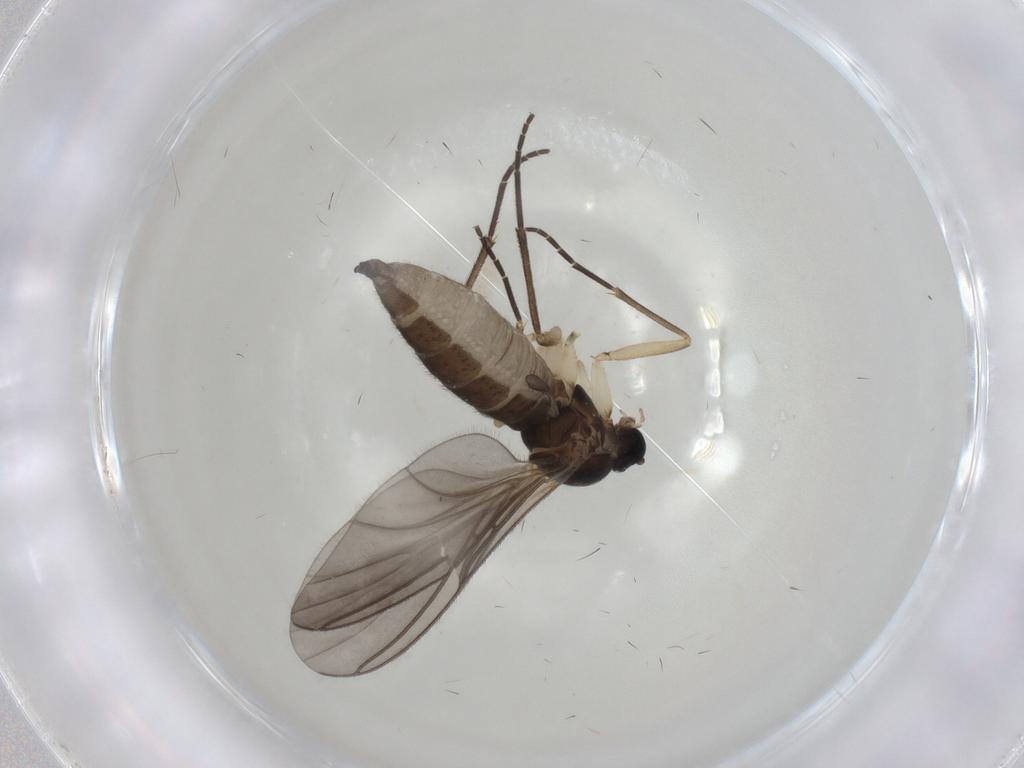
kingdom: Animalia
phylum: Arthropoda
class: Insecta
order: Diptera
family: Sciaridae
